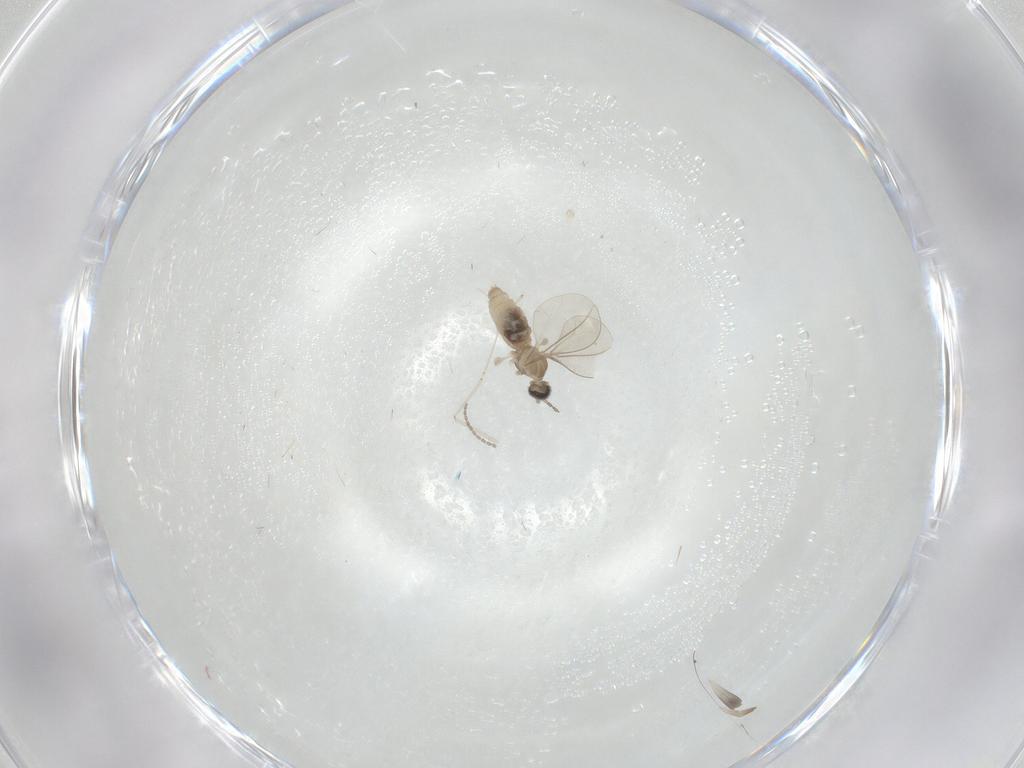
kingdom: Animalia
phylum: Arthropoda
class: Insecta
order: Diptera
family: Cecidomyiidae
